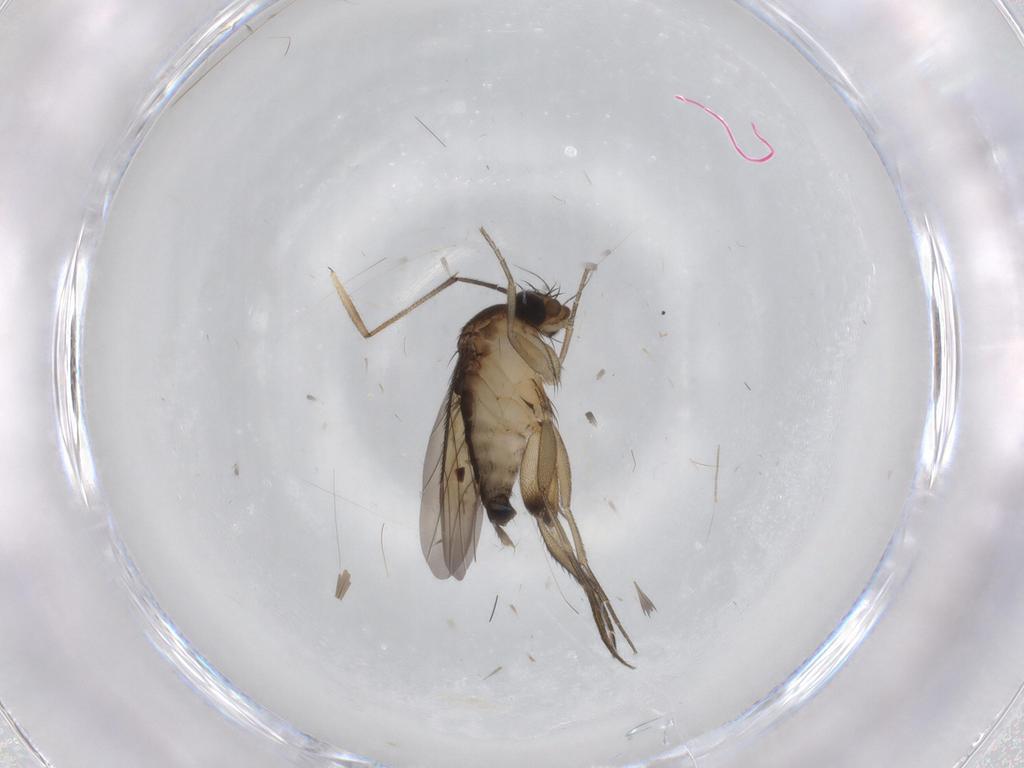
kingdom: Animalia
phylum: Arthropoda
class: Insecta
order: Diptera
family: Cecidomyiidae
